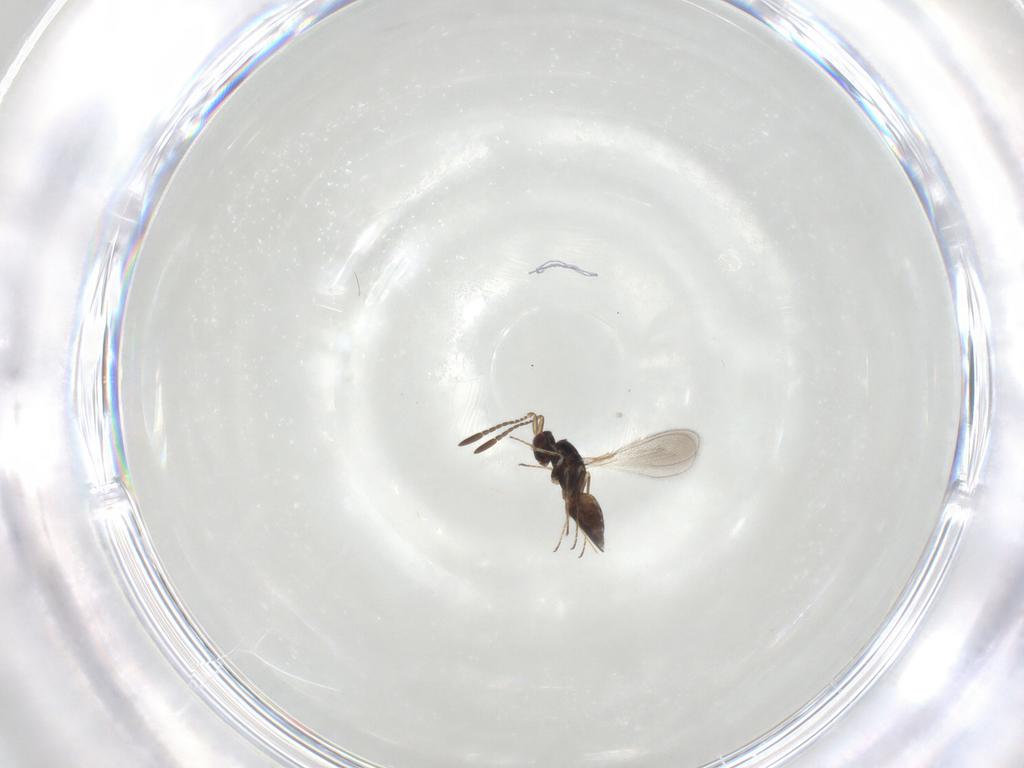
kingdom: Animalia
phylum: Arthropoda
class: Insecta
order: Hymenoptera
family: Mymaridae
